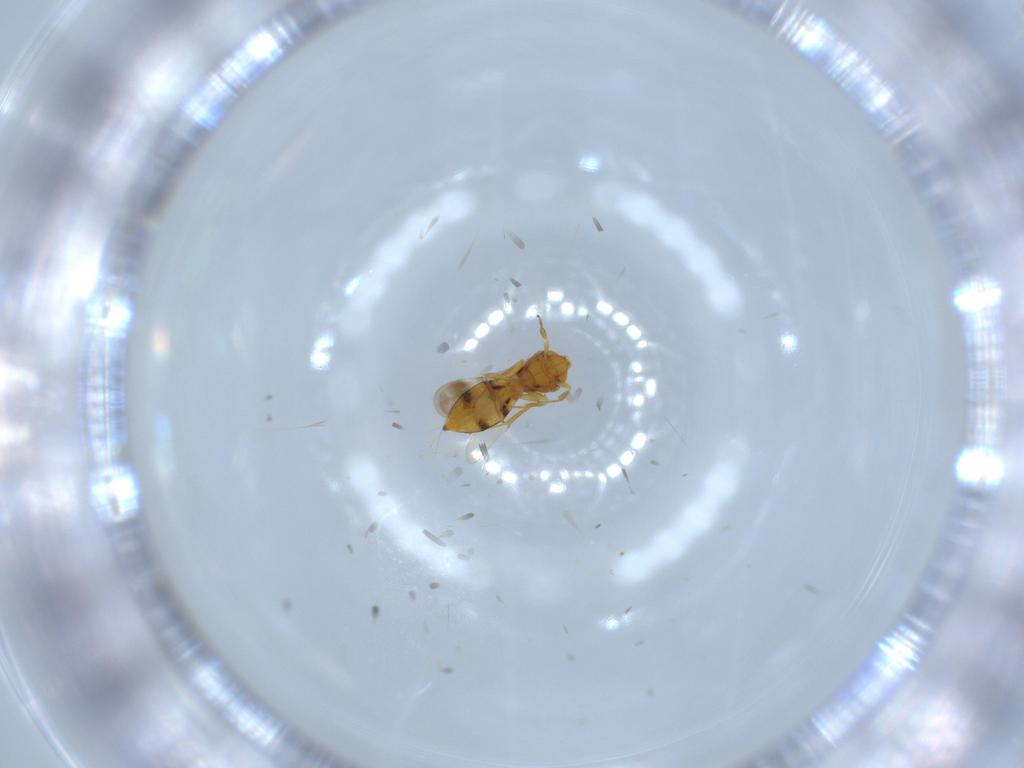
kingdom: Animalia
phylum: Arthropoda
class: Insecta
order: Hymenoptera
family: Scelionidae
